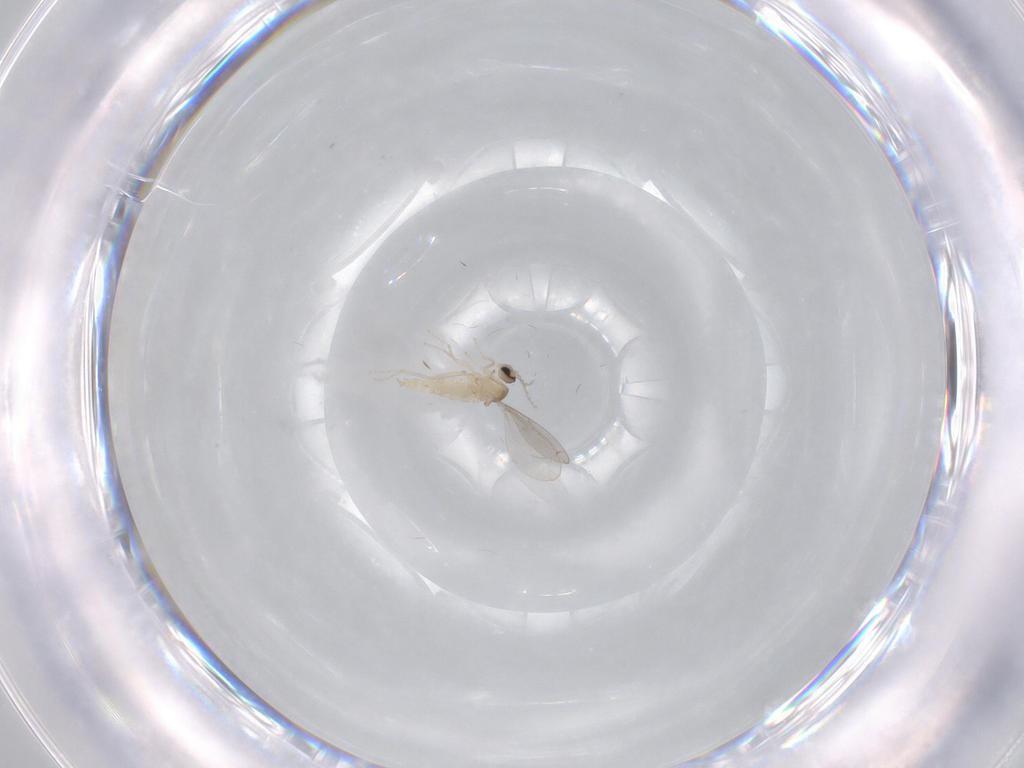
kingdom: Animalia
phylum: Arthropoda
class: Insecta
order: Diptera
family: Cecidomyiidae
